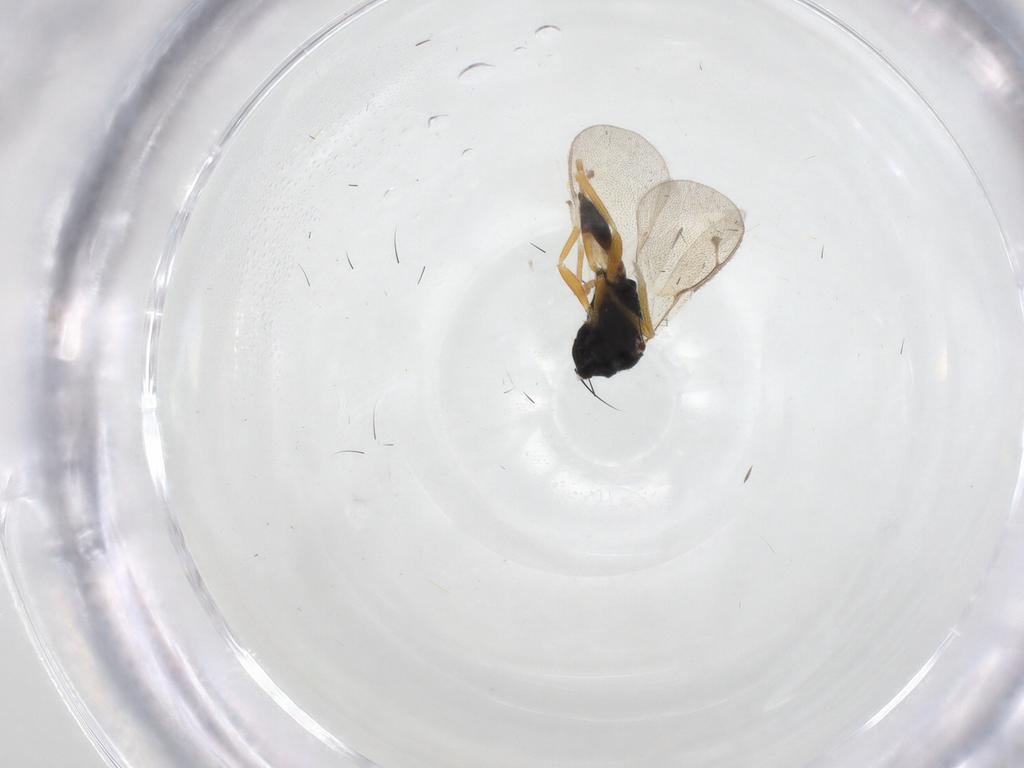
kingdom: Animalia
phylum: Arthropoda
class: Insecta
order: Hymenoptera
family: Pteromalidae
